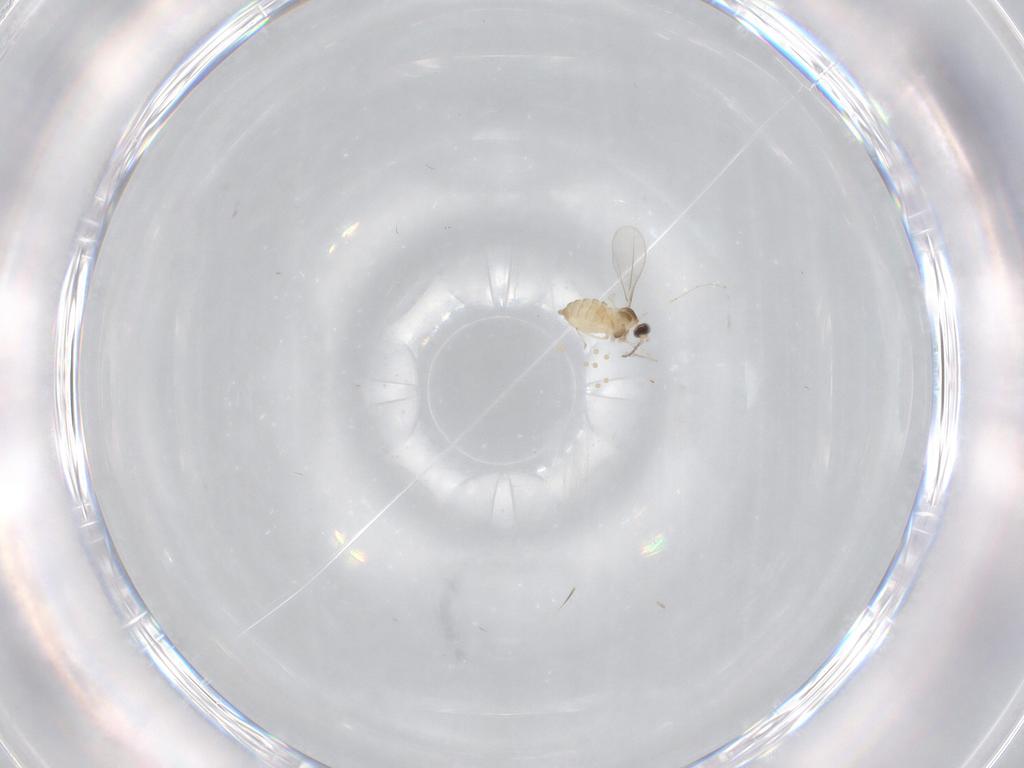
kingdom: Animalia
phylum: Arthropoda
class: Insecta
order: Diptera
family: Cecidomyiidae
